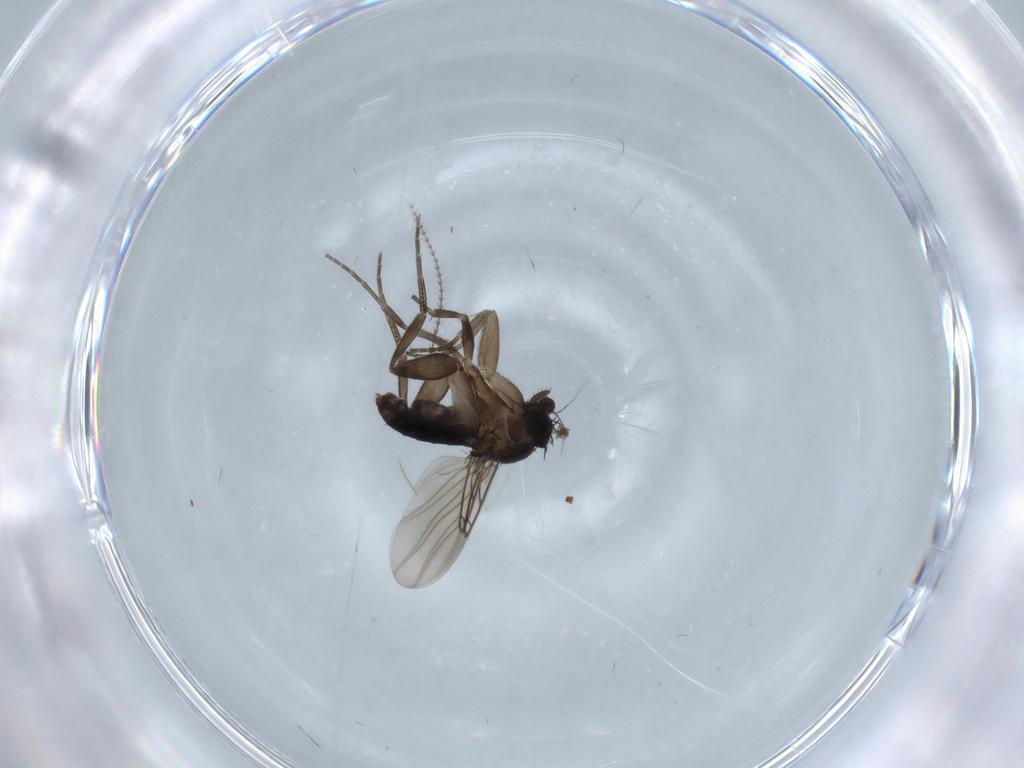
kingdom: Animalia
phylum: Arthropoda
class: Insecta
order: Diptera
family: Phoridae
